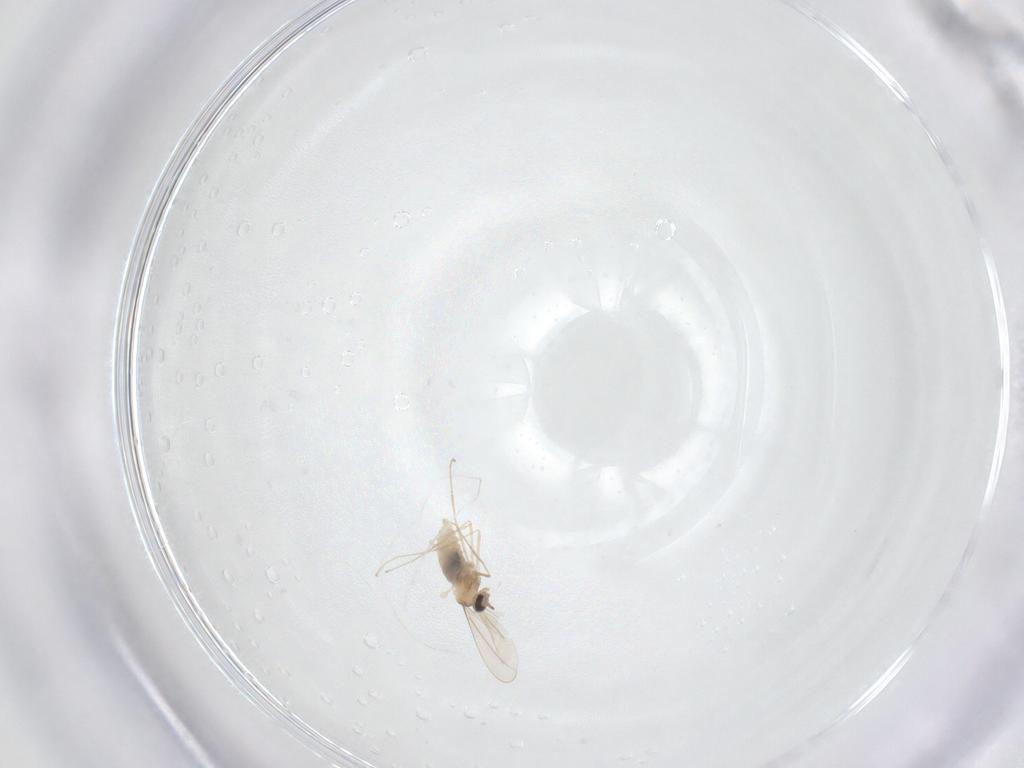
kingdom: Animalia
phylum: Arthropoda
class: Insecta
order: Diptera
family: Cecidomyiidae
